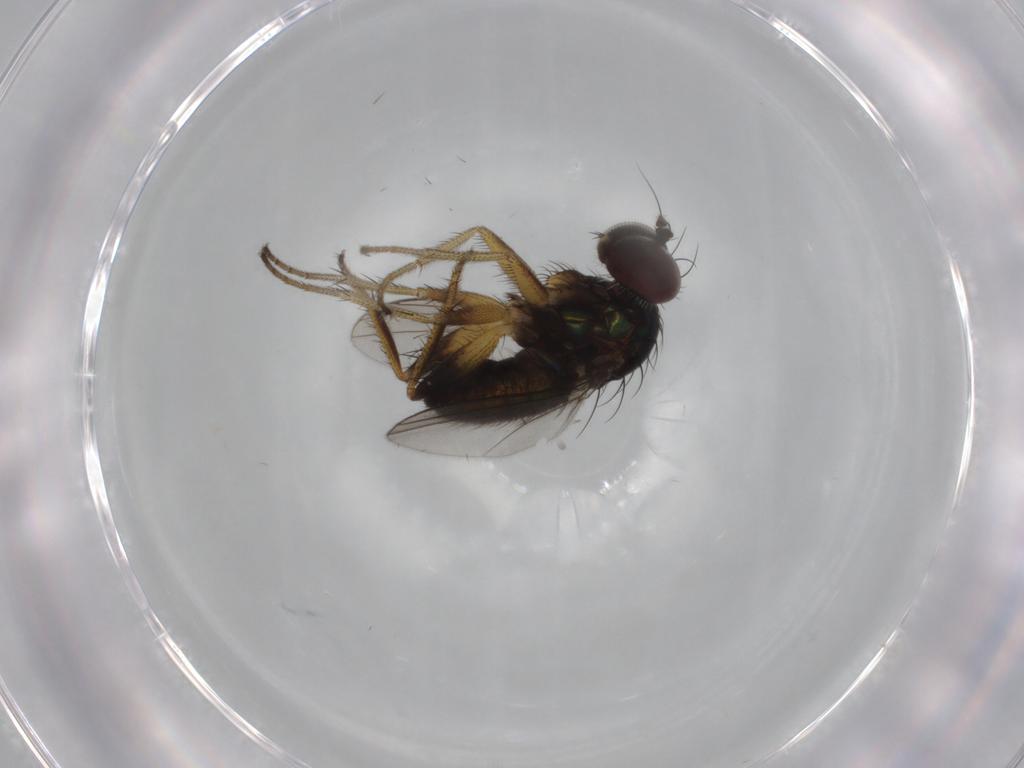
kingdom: Animalia
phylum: Arthropoda
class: Insecta
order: Diptera
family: Dolichopodidae
